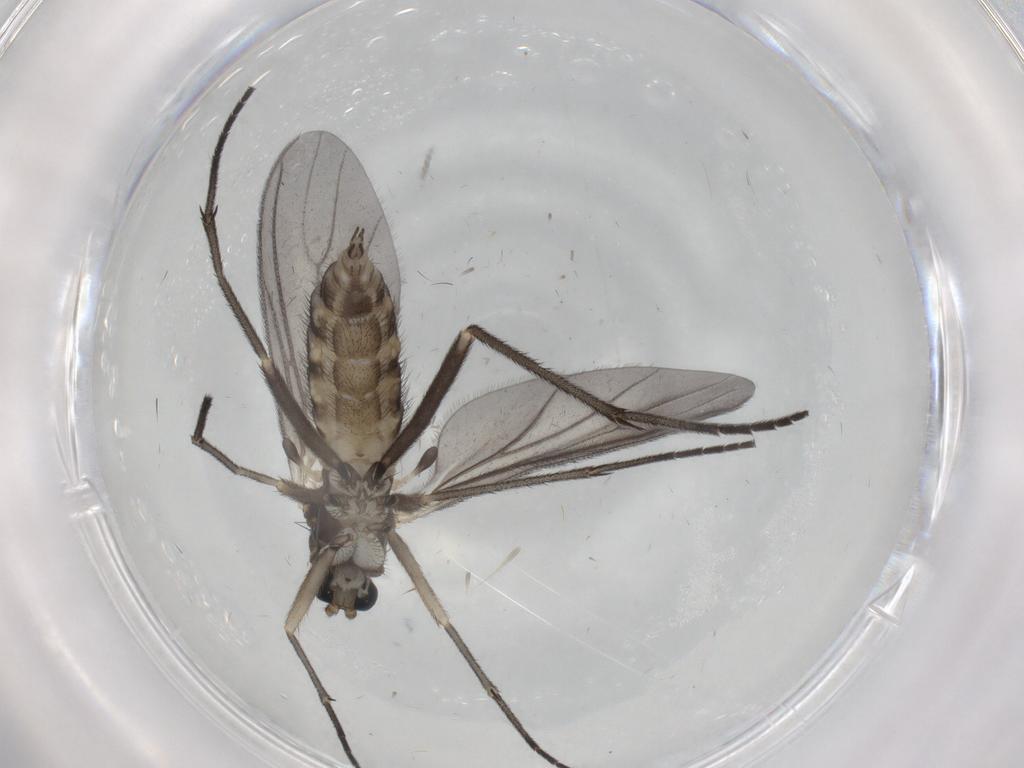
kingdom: Animalia
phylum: Arthropoda
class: Insecta
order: Diptera
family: Sciaridae
